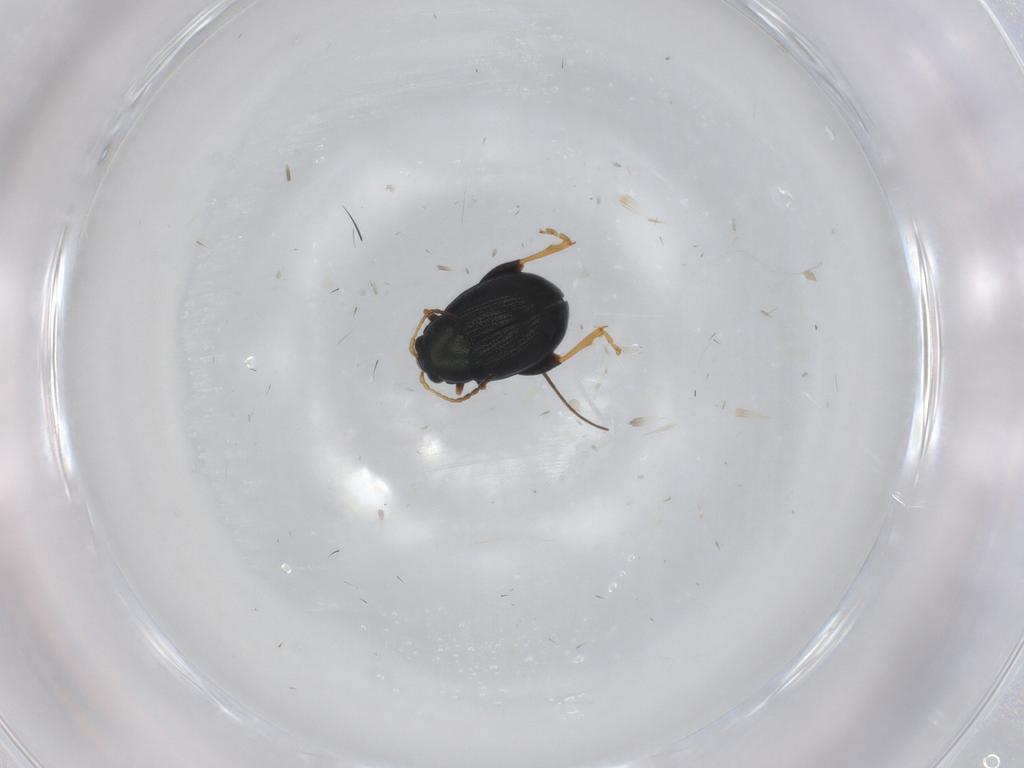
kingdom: Animalia
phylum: Arthropoda
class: Insecta
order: Coleoptera
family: Chrysomelidae
